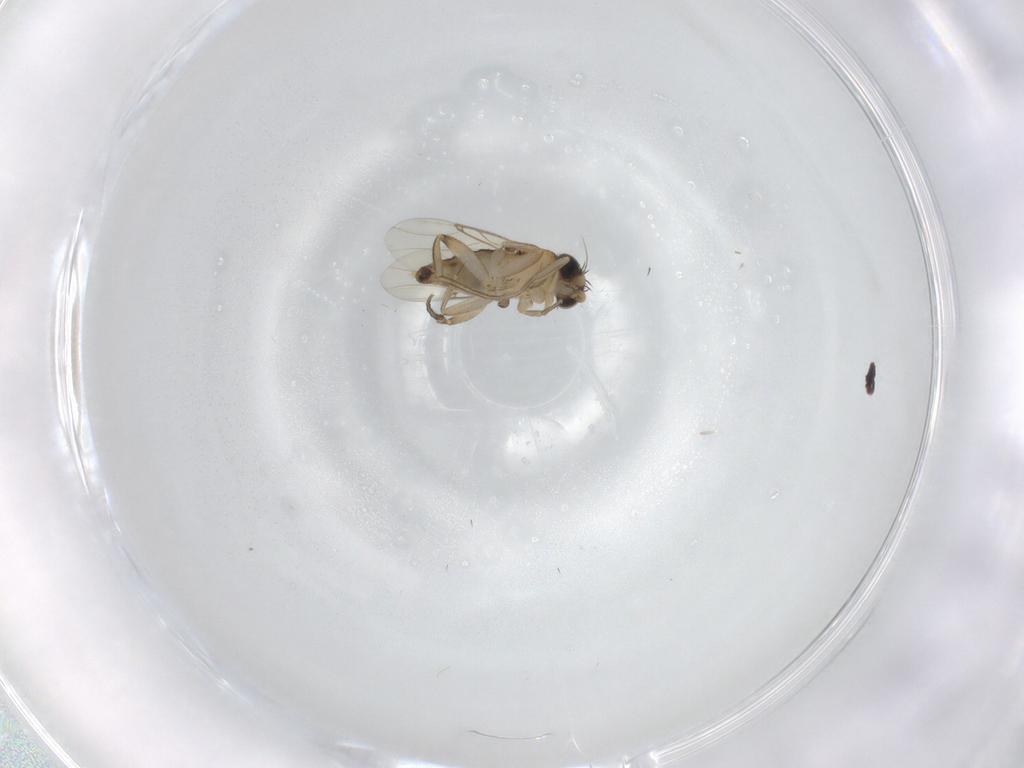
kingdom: Animalia
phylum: Arthropoda
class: Insecta
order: Diptera
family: Phoridae
